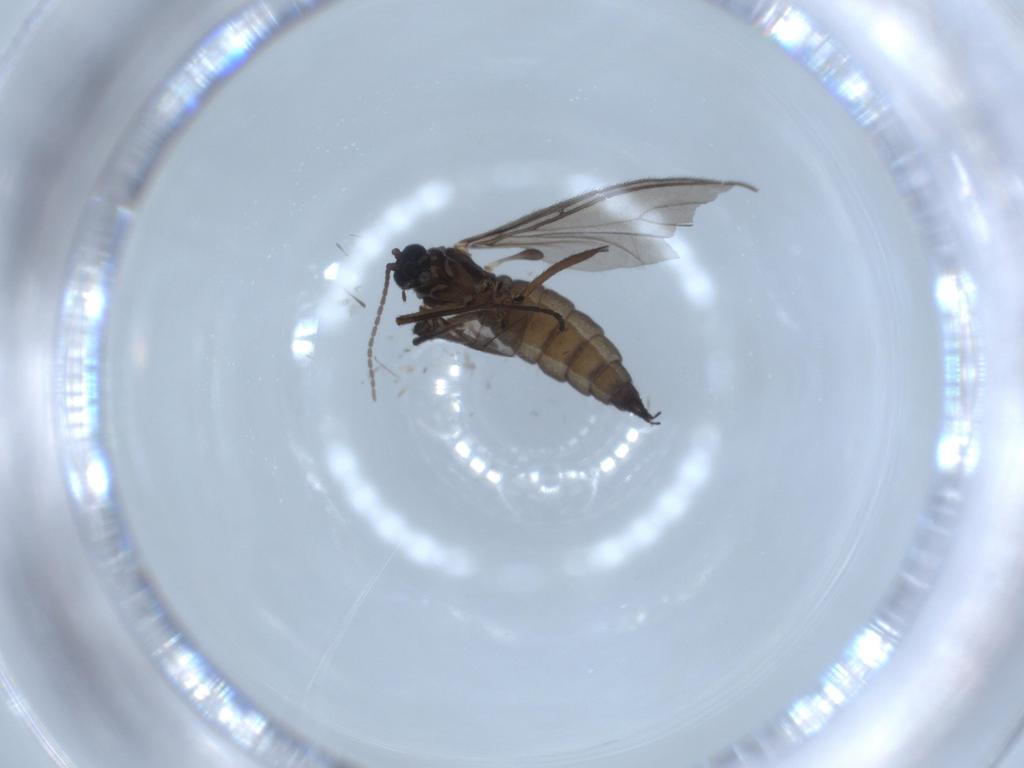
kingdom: Animalia
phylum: Arthropoda
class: Insecta
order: Diptera
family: Sciaridae
